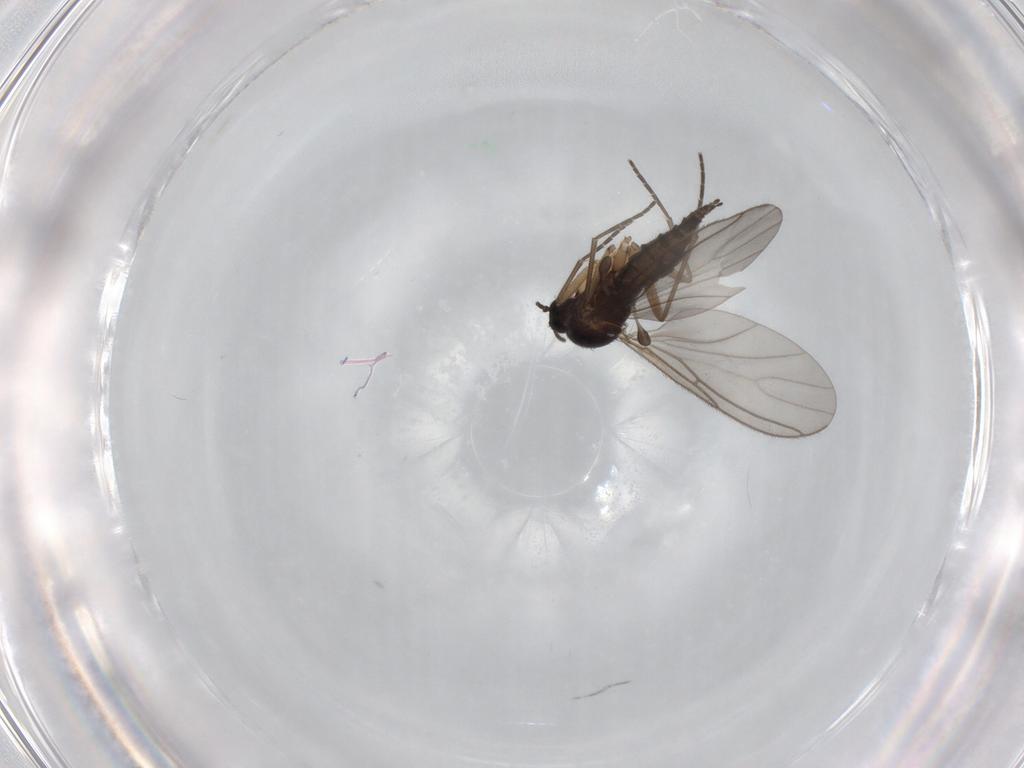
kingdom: Animalia
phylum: Arthropoda
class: Insecta
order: Diptera
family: Sciaridae
